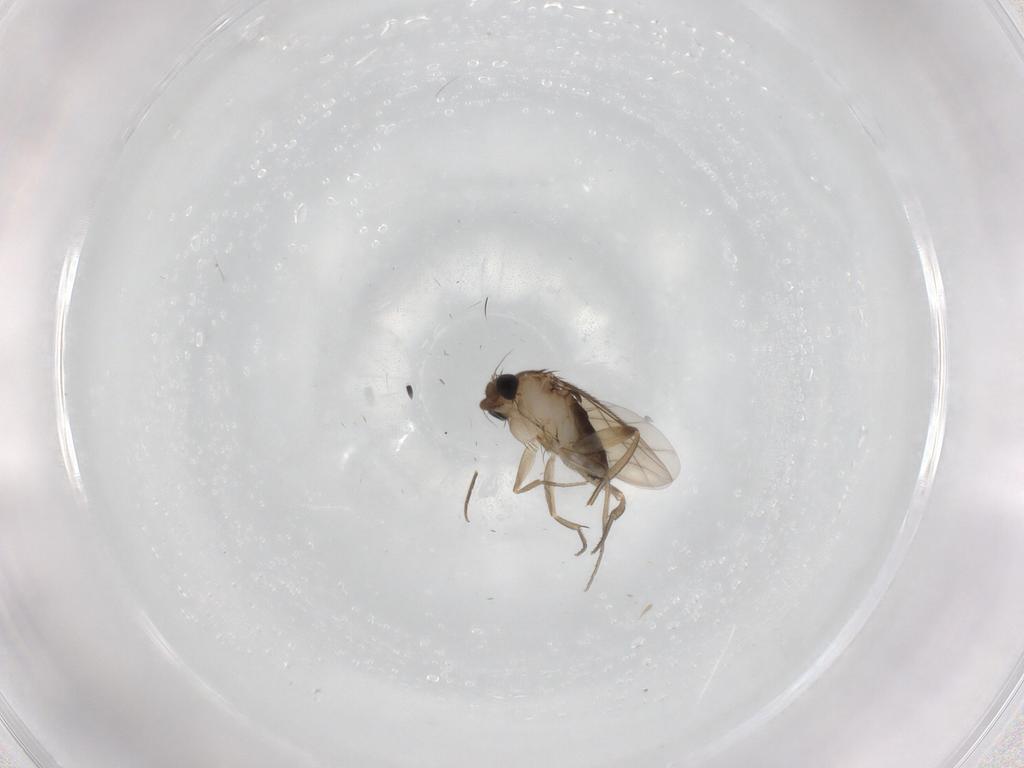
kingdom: Animalia
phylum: Arthropoda
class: Insecta
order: Diptera
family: Phoridae
